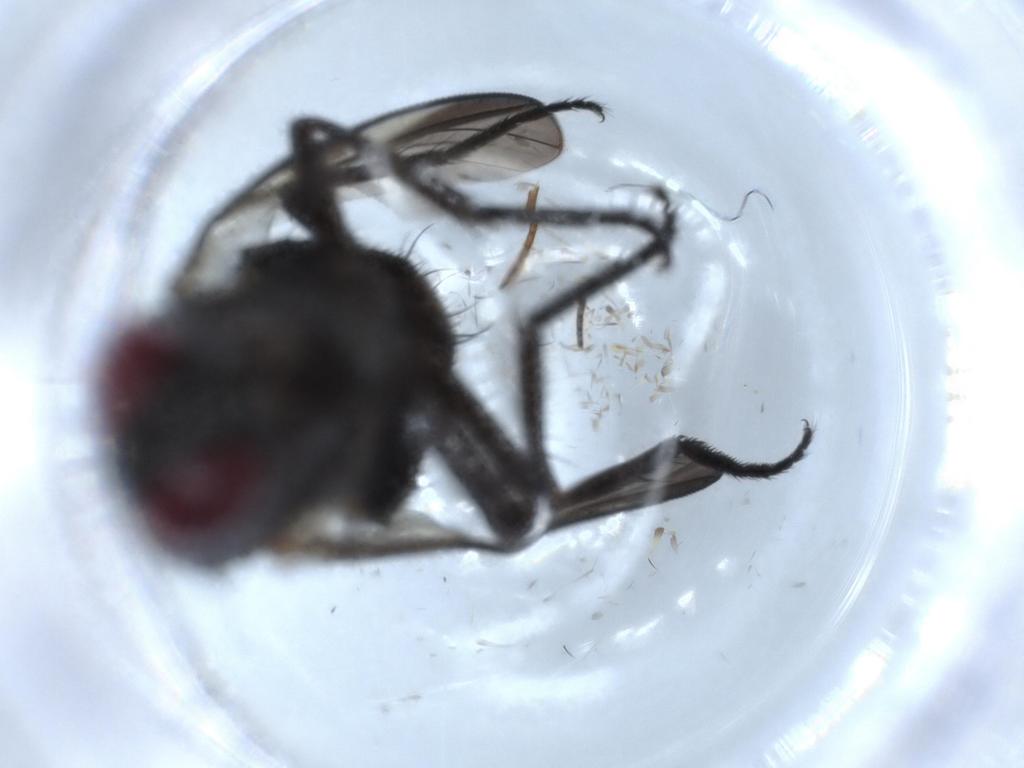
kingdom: Animalia
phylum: Arthropoda
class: Insecta
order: Diptera
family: Fannia
